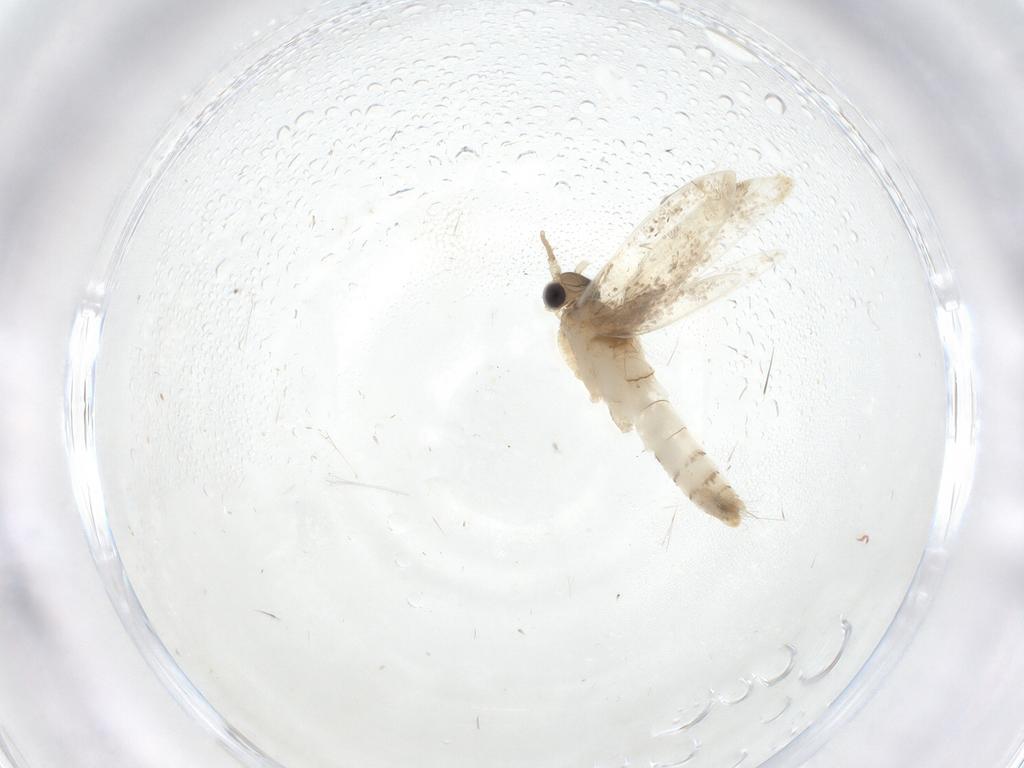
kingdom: Animalia
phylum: Arthropoda
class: Insecta
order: Lepidoptera
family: Dryadaulidae
